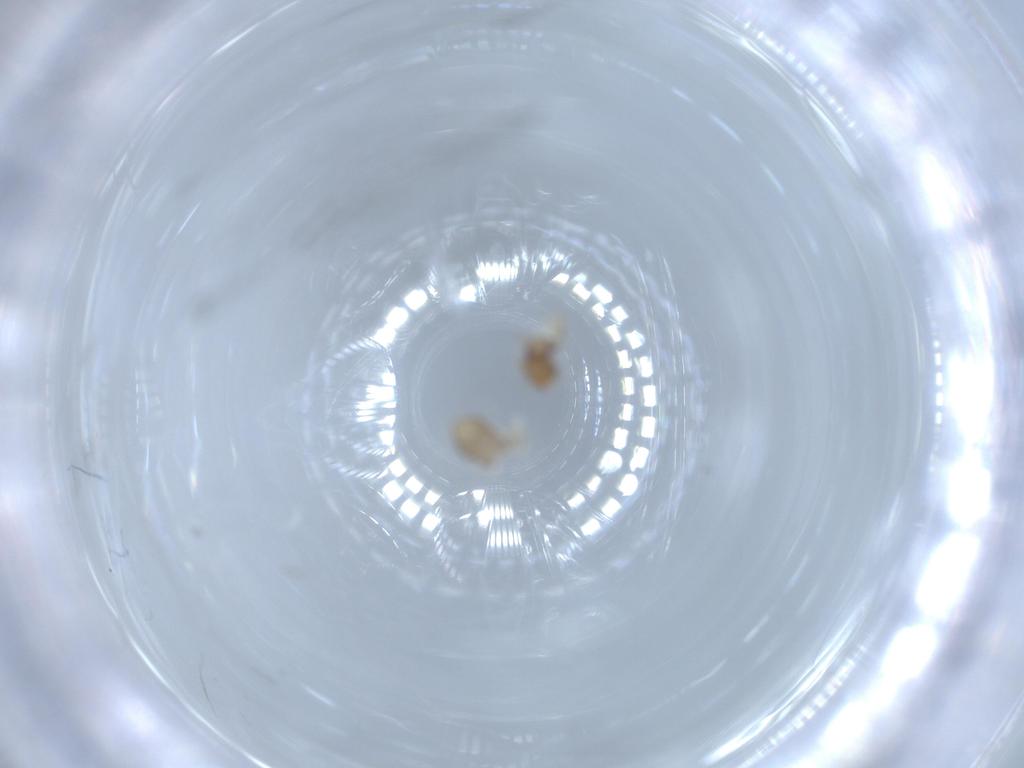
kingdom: Animalia
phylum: Arthropoda
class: Insecta
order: Psocodea
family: Liposcelididae
